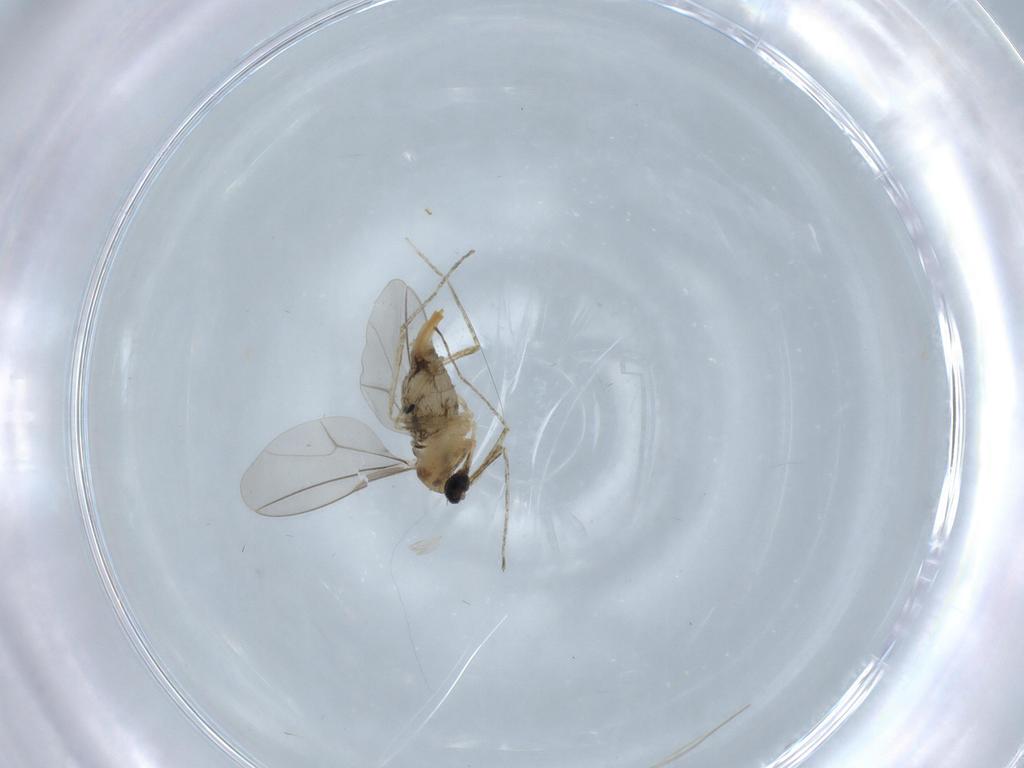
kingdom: Animalia
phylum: Arthropoda
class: Insecta
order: Diptera
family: Cecidomyiidae
